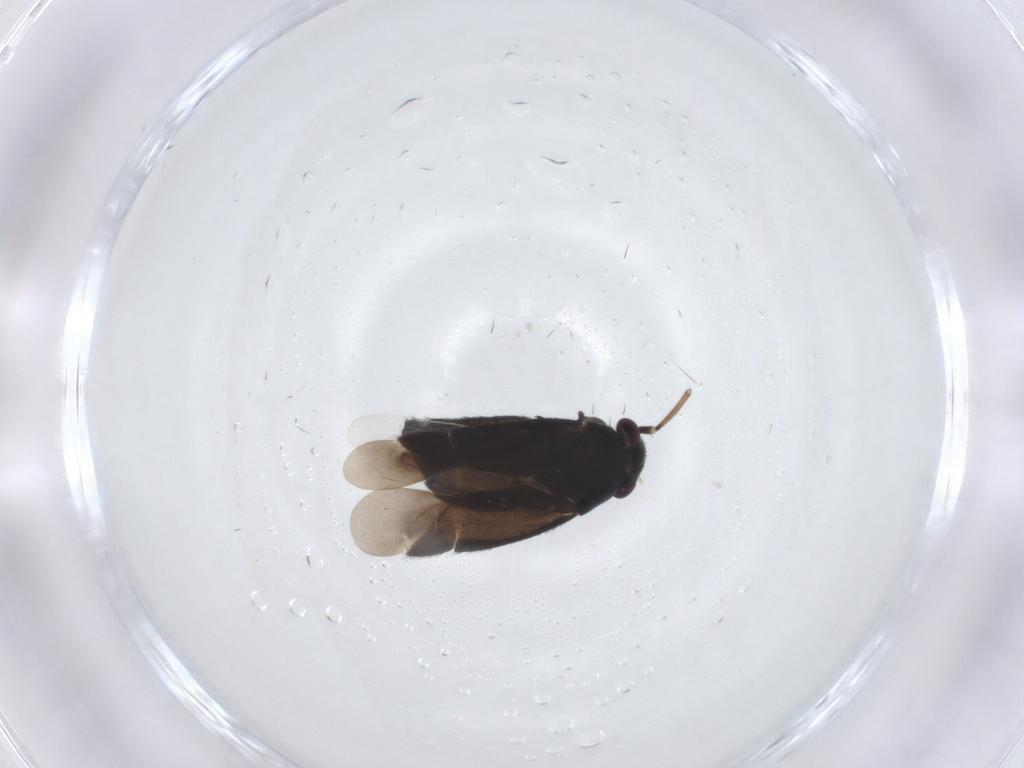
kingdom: Animalia
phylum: Arthropoda
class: Insecta
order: Hemiptera
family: Miridae
